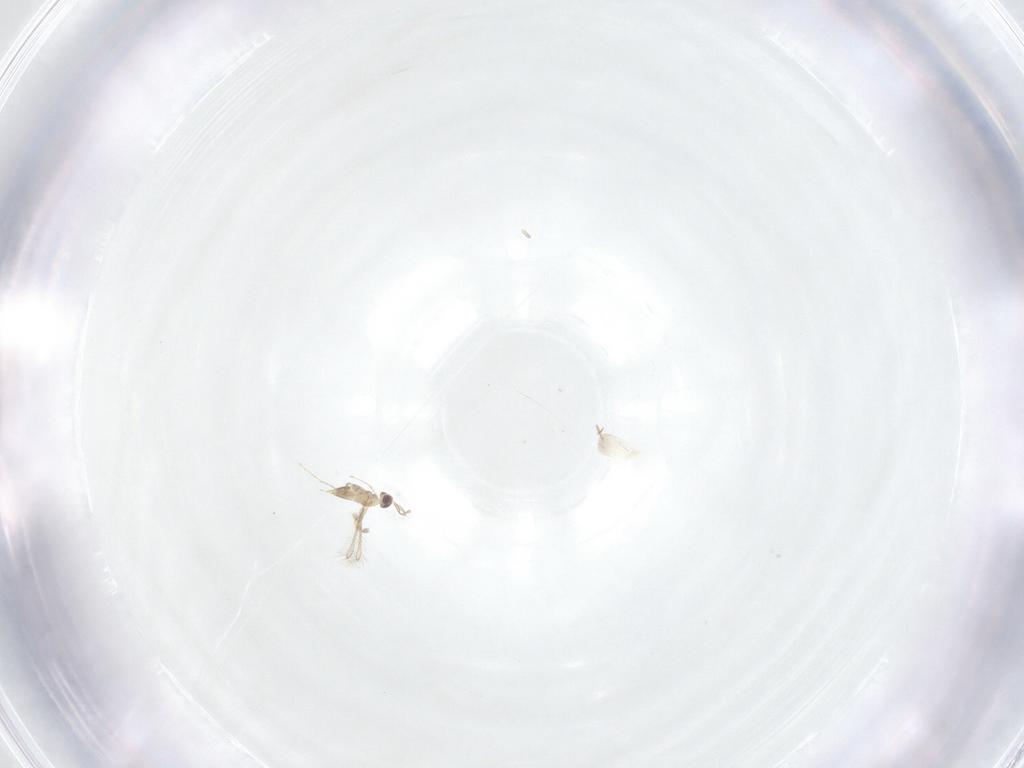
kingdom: Animalia
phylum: Arthropoda
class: Insecta
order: Hymenoptera
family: Mymaridae
